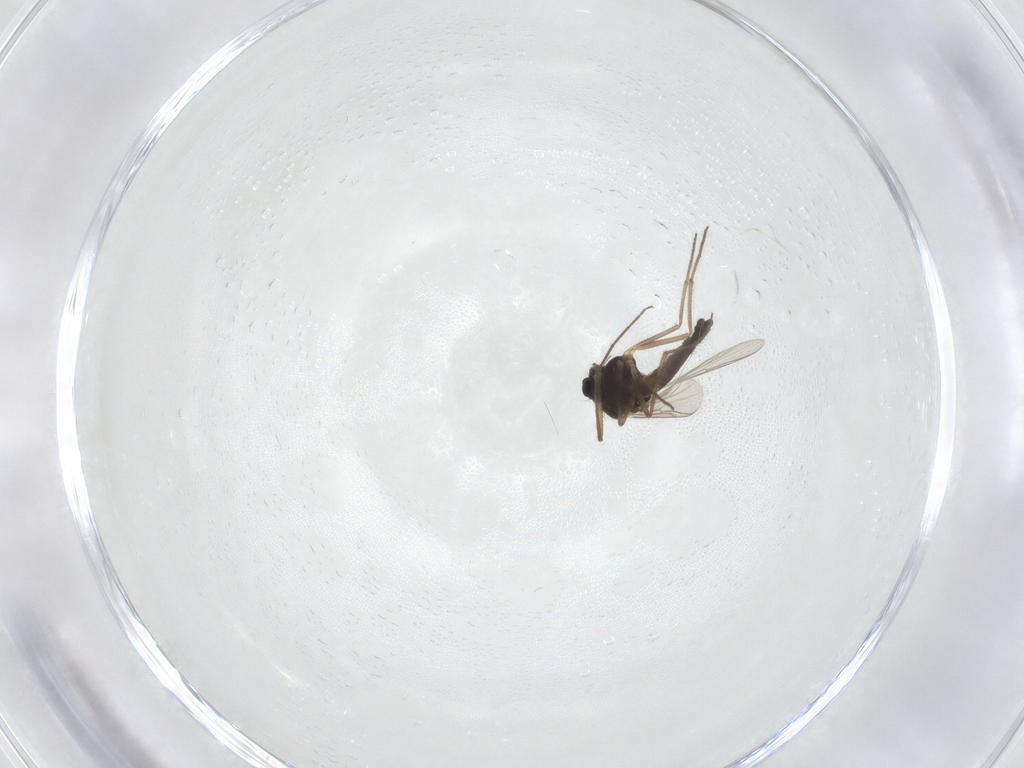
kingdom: Animalia
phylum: Arthropoda
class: Insecta
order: Diptera
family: Chironomidae
